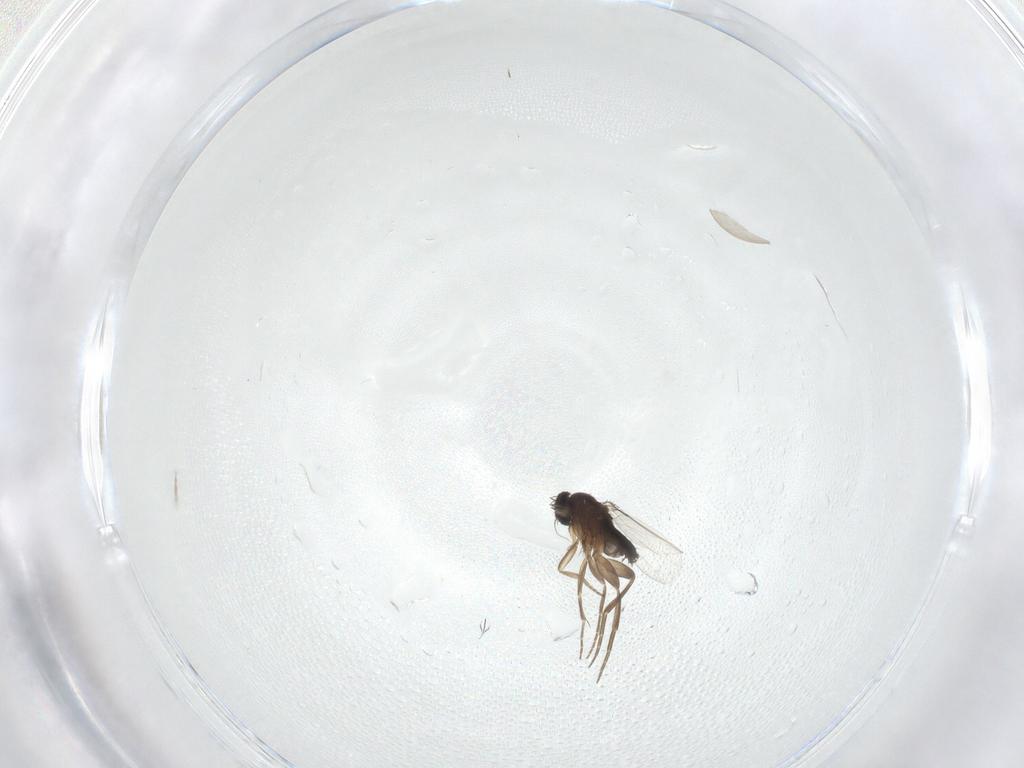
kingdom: Animalia
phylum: Arthropoda
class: Insecta
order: Diptera
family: Phoridae
